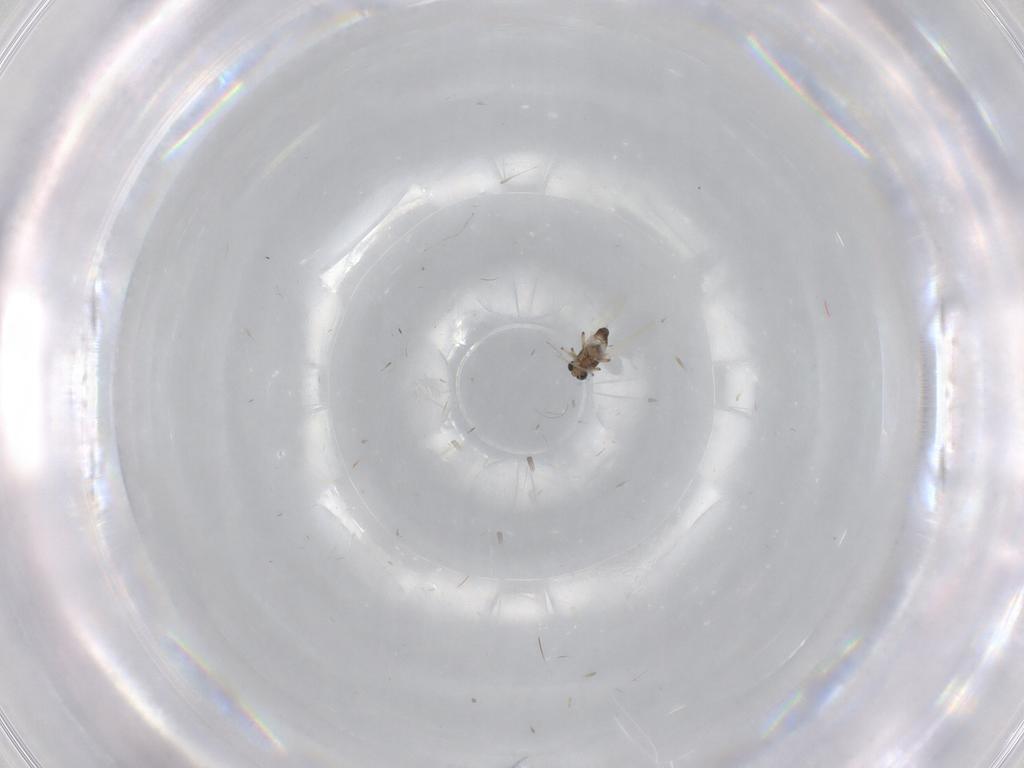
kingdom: Animalia
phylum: Arthropoda
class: Insecta
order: Diptera
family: Ceratopogonidae
